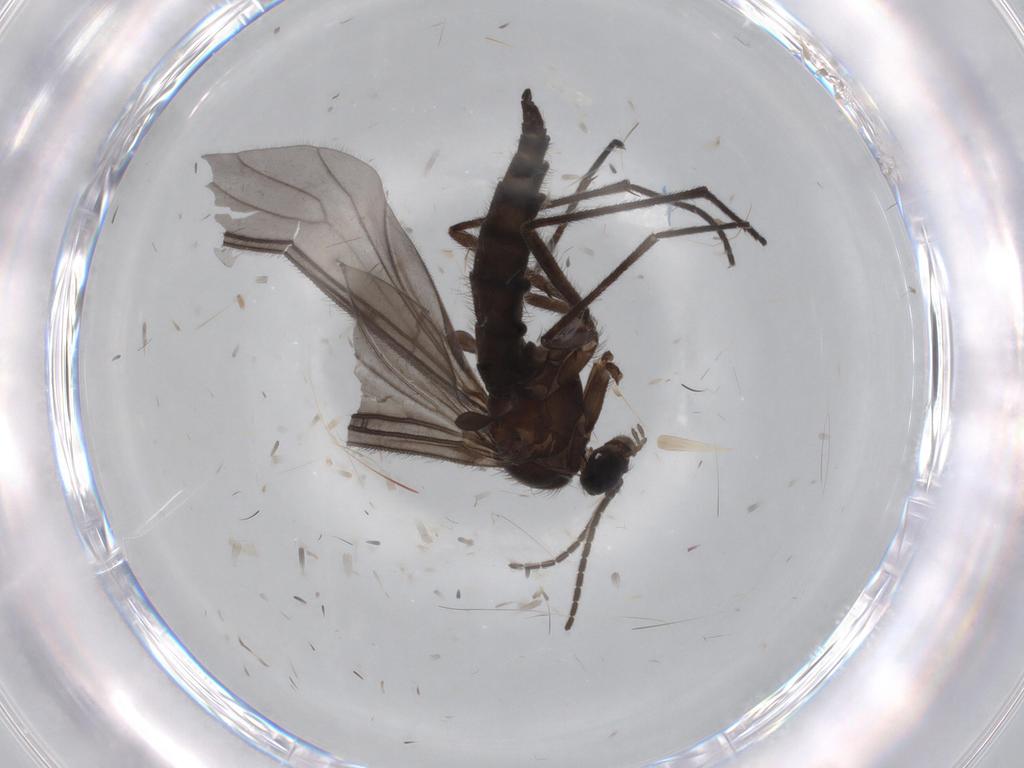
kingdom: Animalia
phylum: Arthropoda
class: Insecta
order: Diptera
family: Sciaridae
